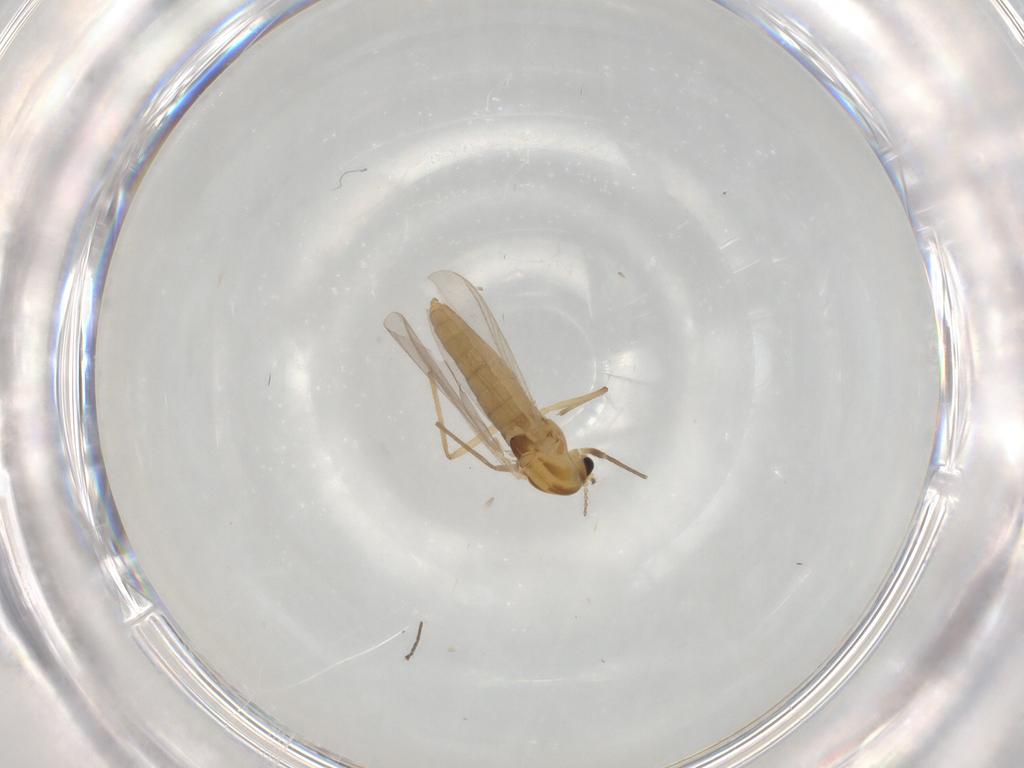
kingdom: Animalia
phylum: Arthropoda
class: Insecta
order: Diptera
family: Chironomidae
